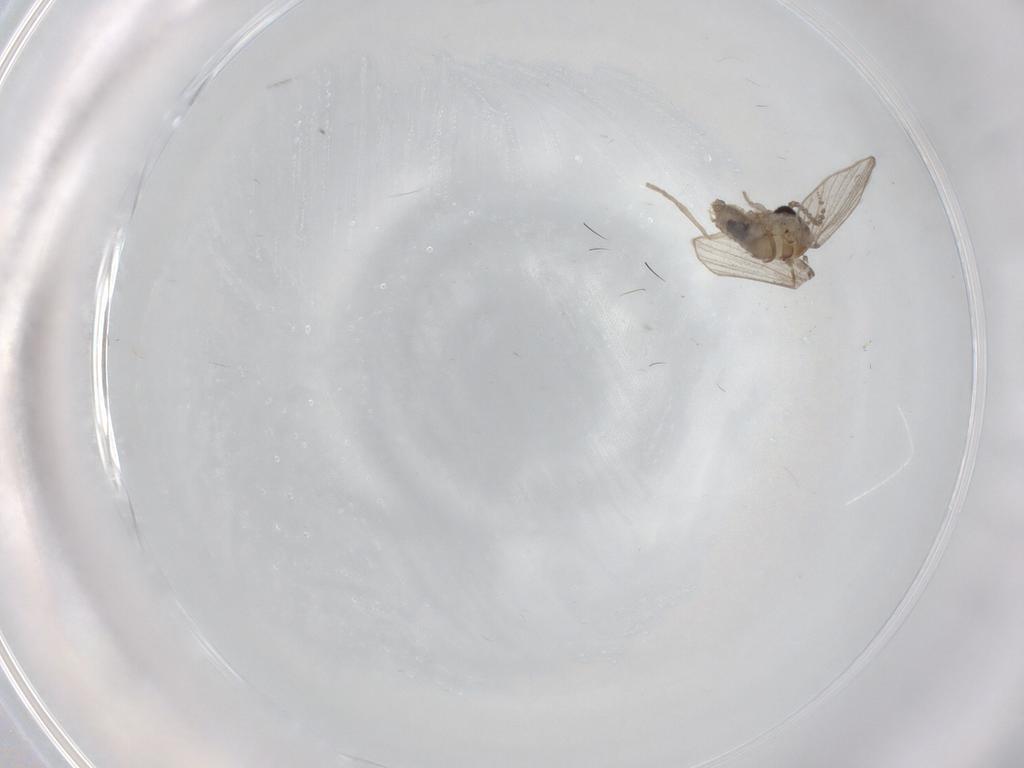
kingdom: Animalia
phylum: Arthropoda
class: Insecta
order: Diptera
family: Psychodidae
